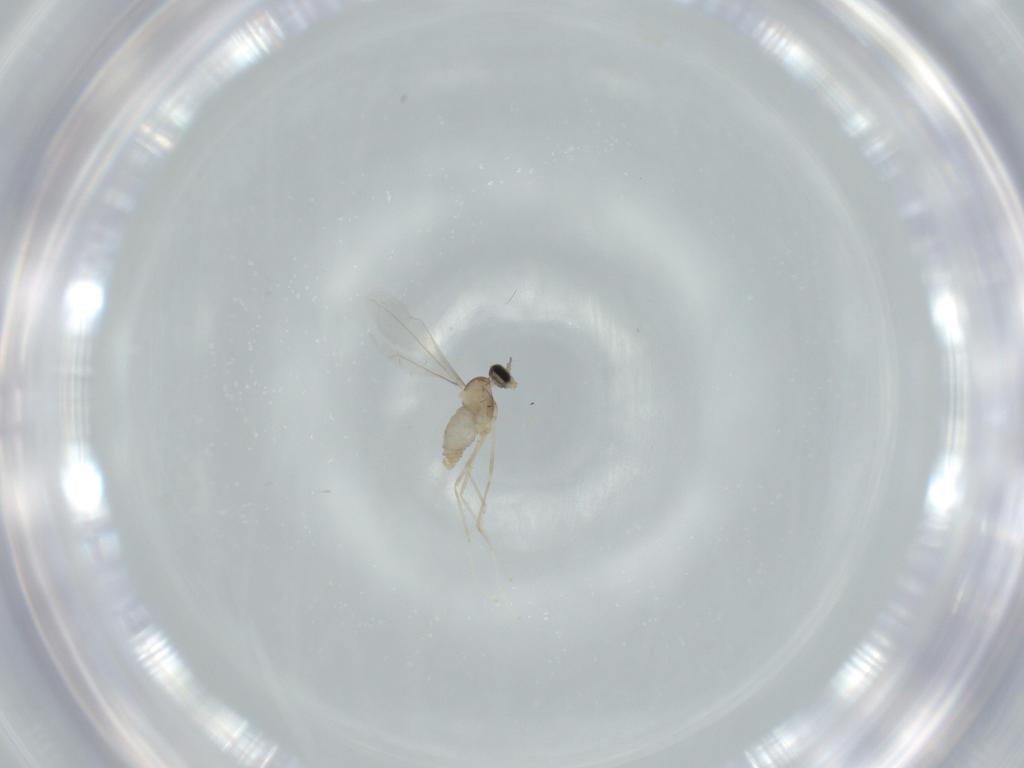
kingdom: Animalia
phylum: Arthropoda
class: Insecta
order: Diptera
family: Cecidomyiidae
